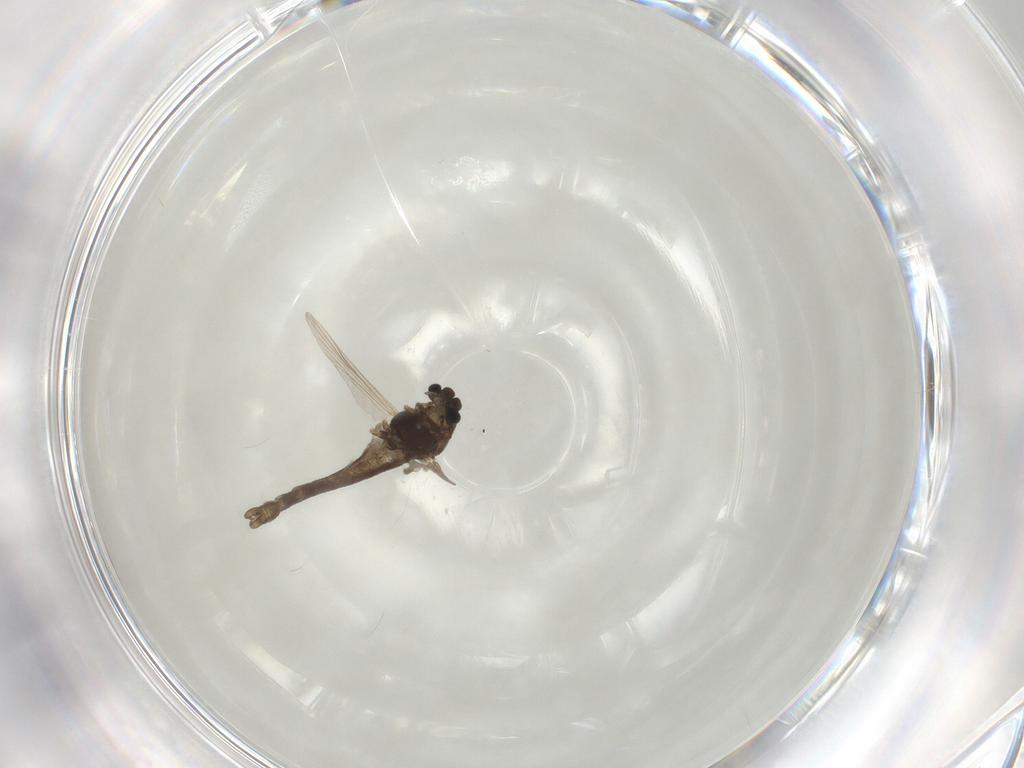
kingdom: Animalia
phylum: Arthropoda
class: Insecta
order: Diptera
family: Chironomidae
